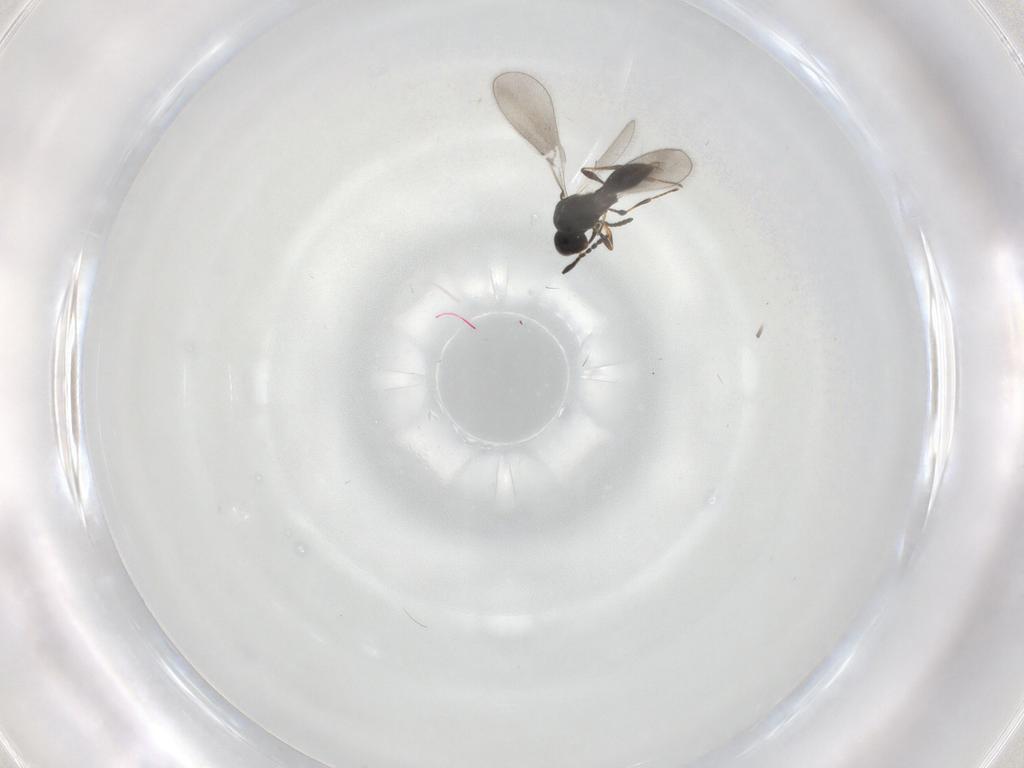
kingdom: Animalia
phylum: Arthropoda
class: Insecta
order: Hymenoptera
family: Platygastridae
